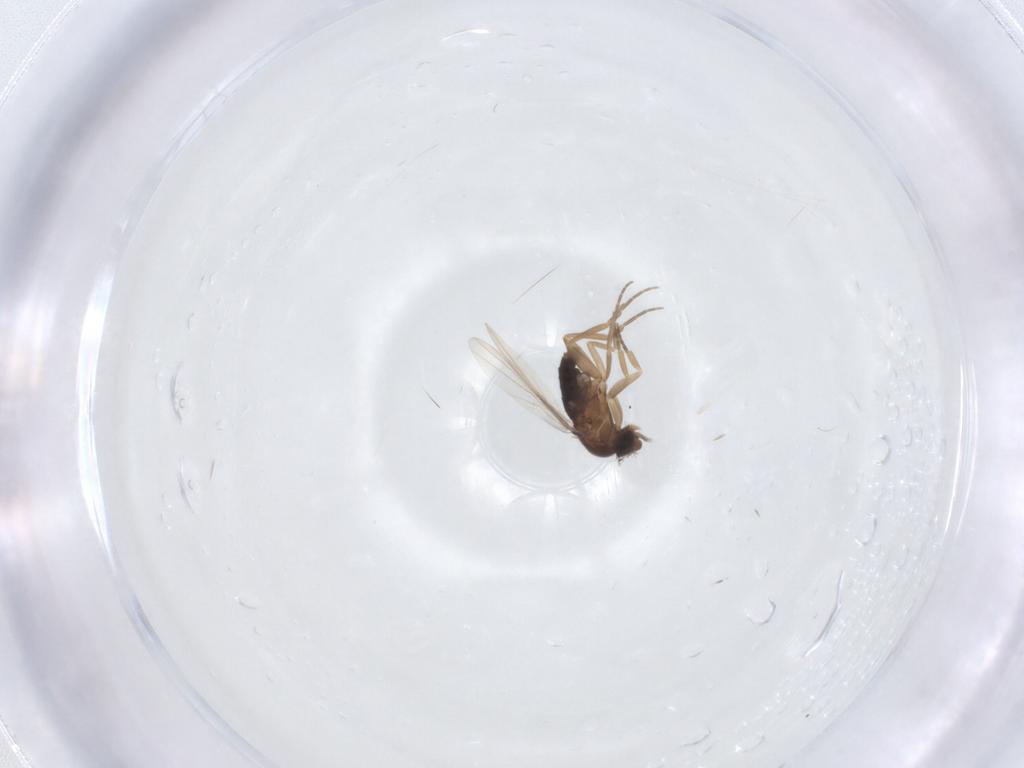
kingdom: Animalia
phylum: Arthropoda
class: Insecta
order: Diptera
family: Phoridae
